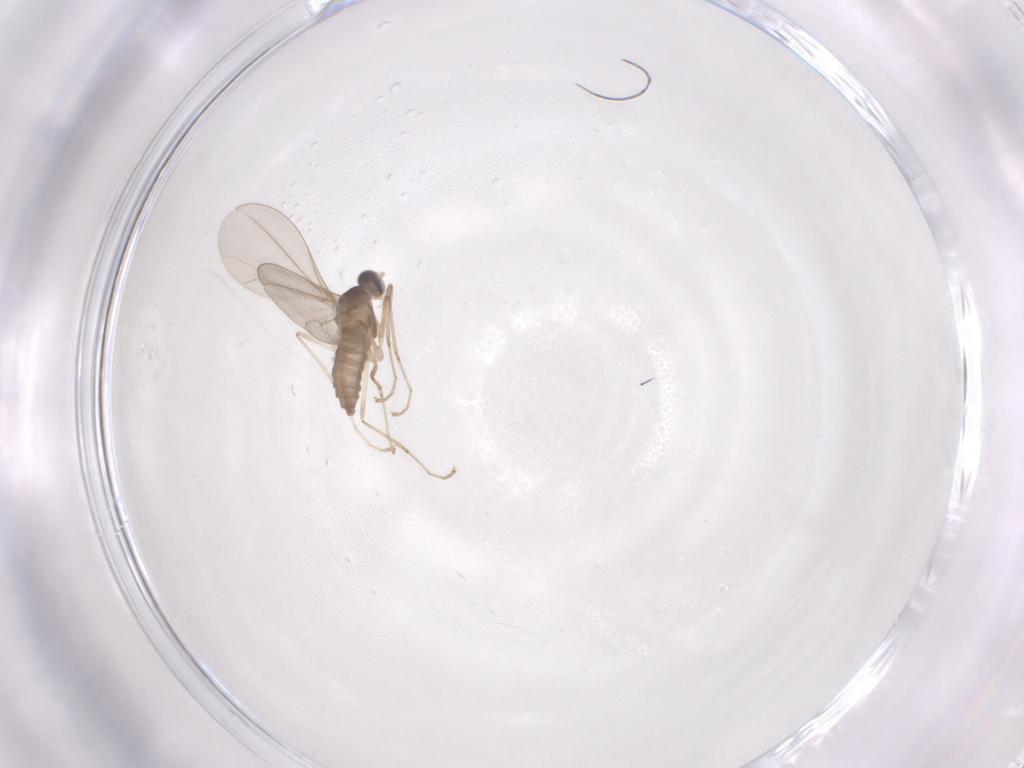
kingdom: Animalia
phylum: Arthropoda
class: Insecta
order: Diptera
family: Cecidomyiidae
